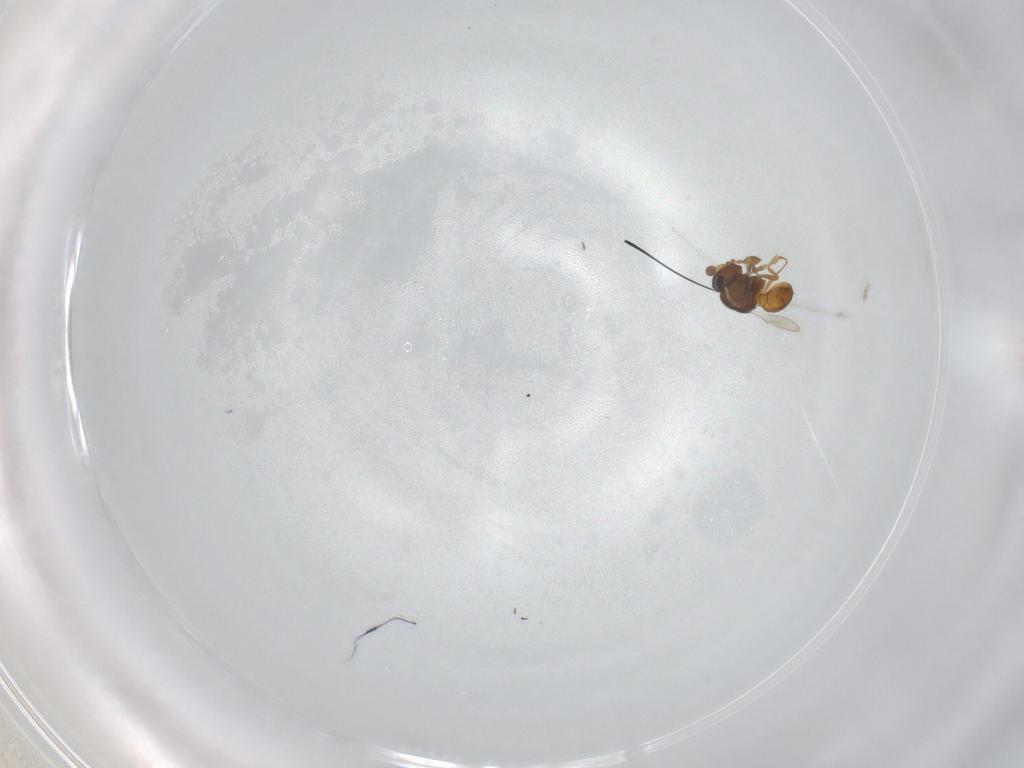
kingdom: Animalia
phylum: Arthropoda
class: Insecta
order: Hymenoptera
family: Scelionidae
